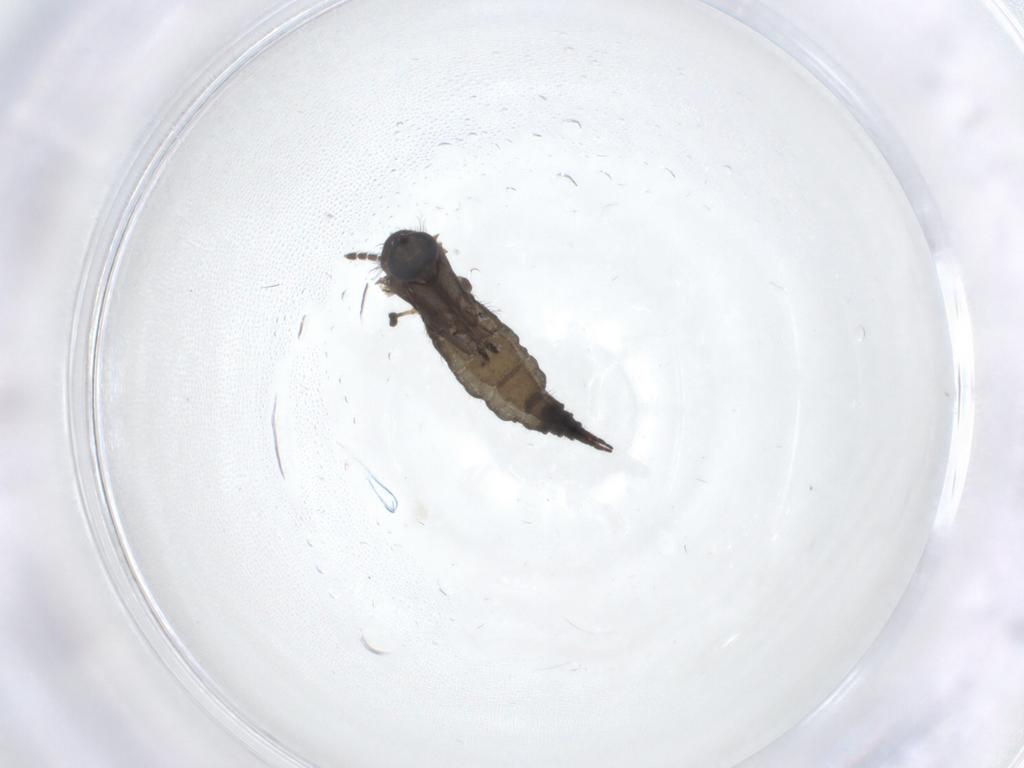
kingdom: Animalia
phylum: Arthropoda
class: Insecta
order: Diptera
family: Sciaridae
